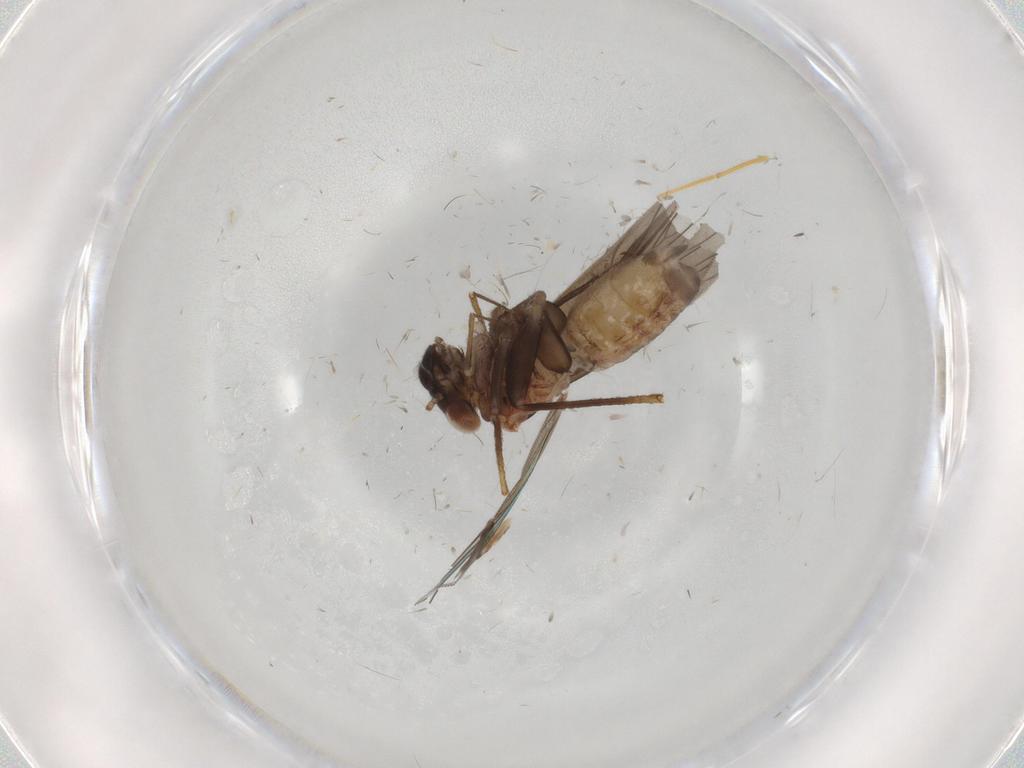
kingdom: Animalia
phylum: Arthropoda
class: Insecta
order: Psocodea
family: Lepidopsocidae
